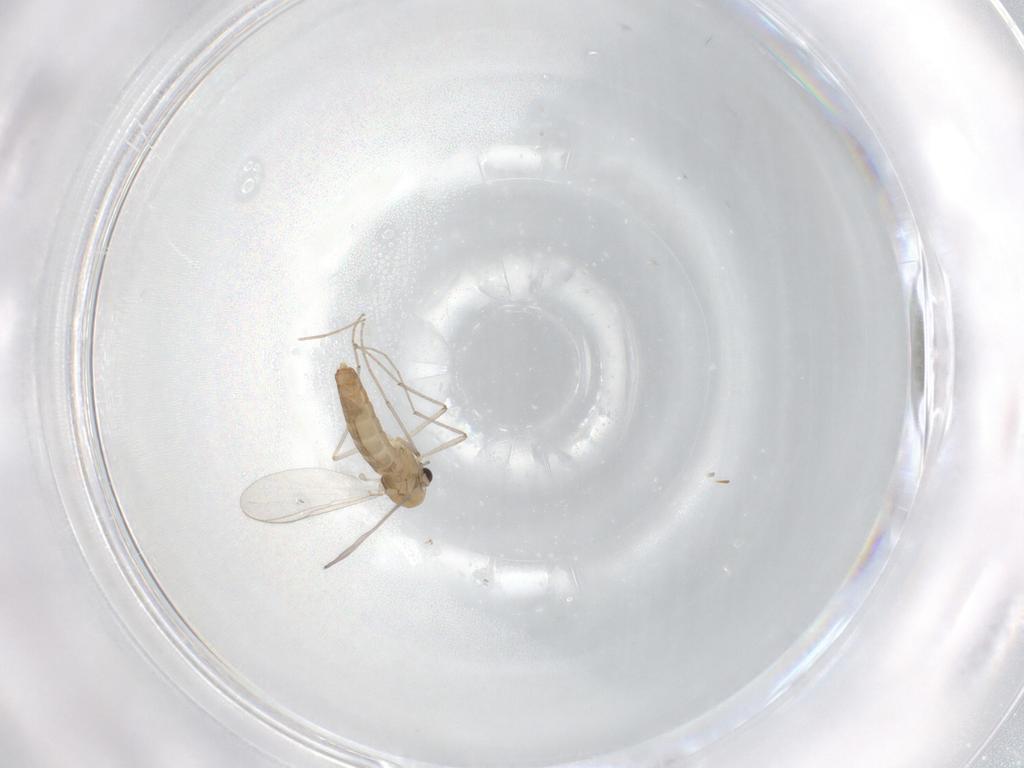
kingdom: Animalia
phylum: Arthropoda
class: Insecta
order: Diptera
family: Chironomidae
